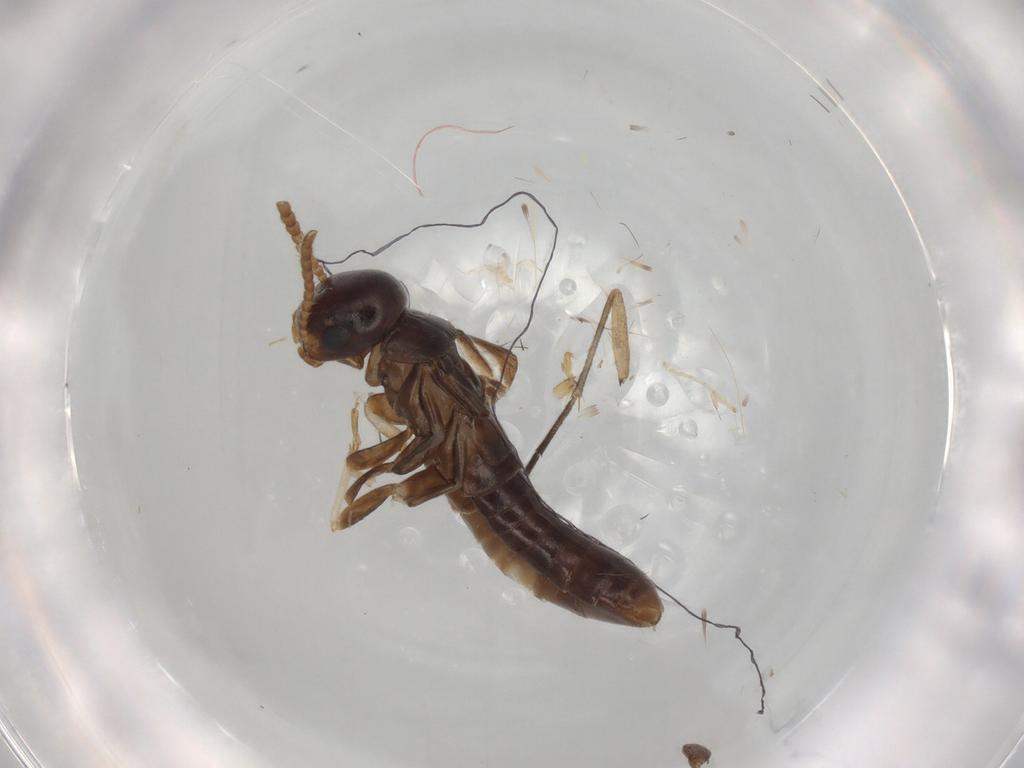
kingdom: Animalia
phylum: Arthropoda
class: Insecta
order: Blattodea
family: Kalotermitidae
